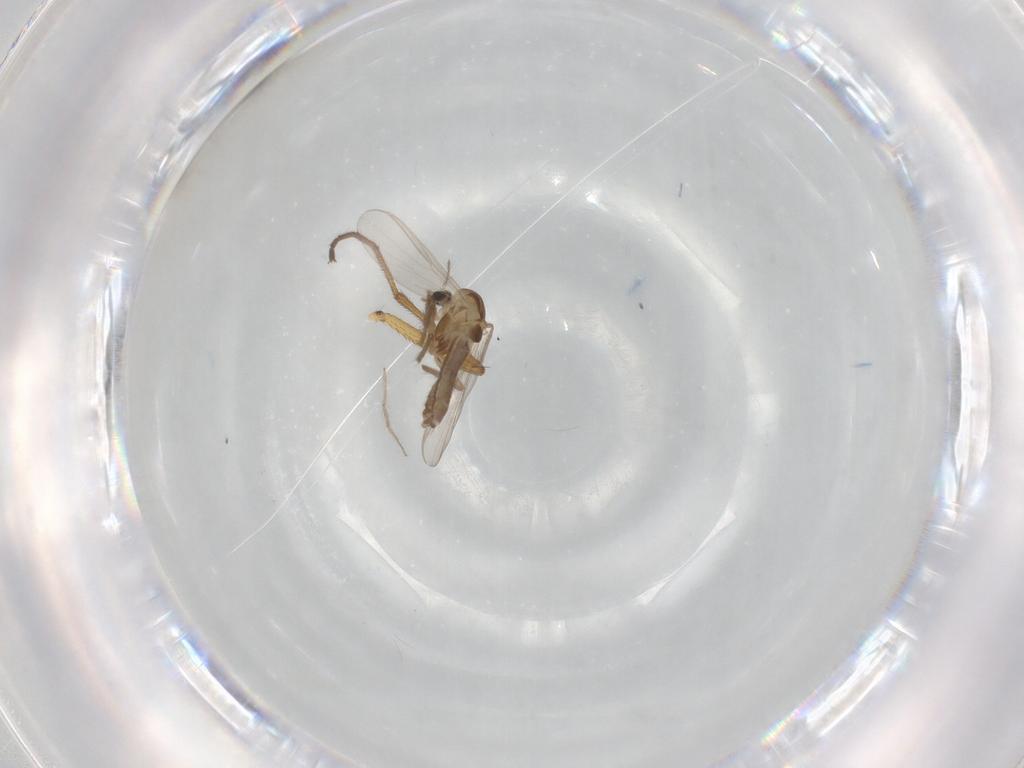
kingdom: Animalia
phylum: Arthropoda
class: Insecta
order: Diptera
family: Chironomidae
